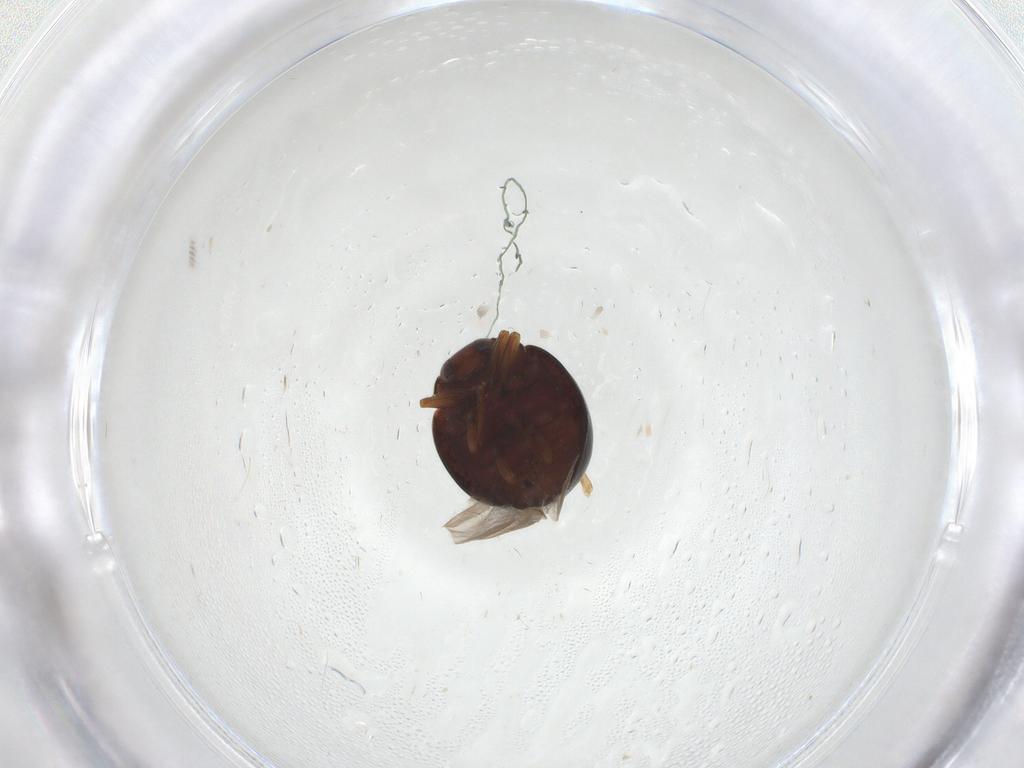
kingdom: Animalia
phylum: Arthropoda
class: Insecta
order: Coleoptera
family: Coccinellidae
